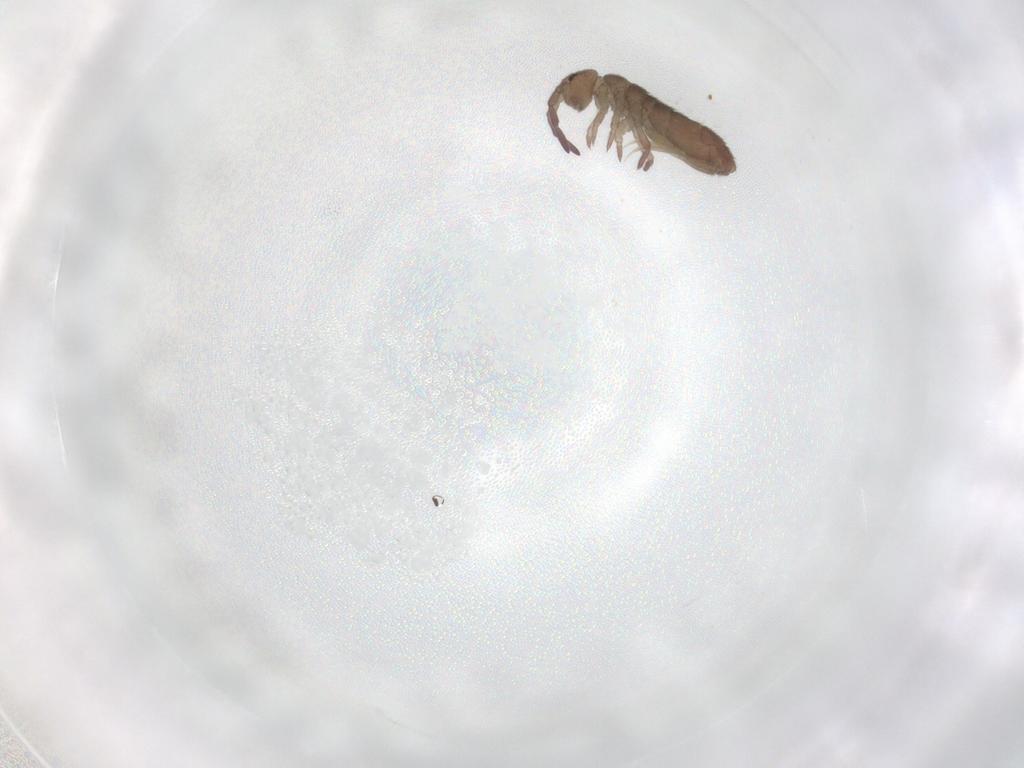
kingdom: Animalia
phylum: Arthropoda
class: Collembola
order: Entomobryomorpha
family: Isotomidae
